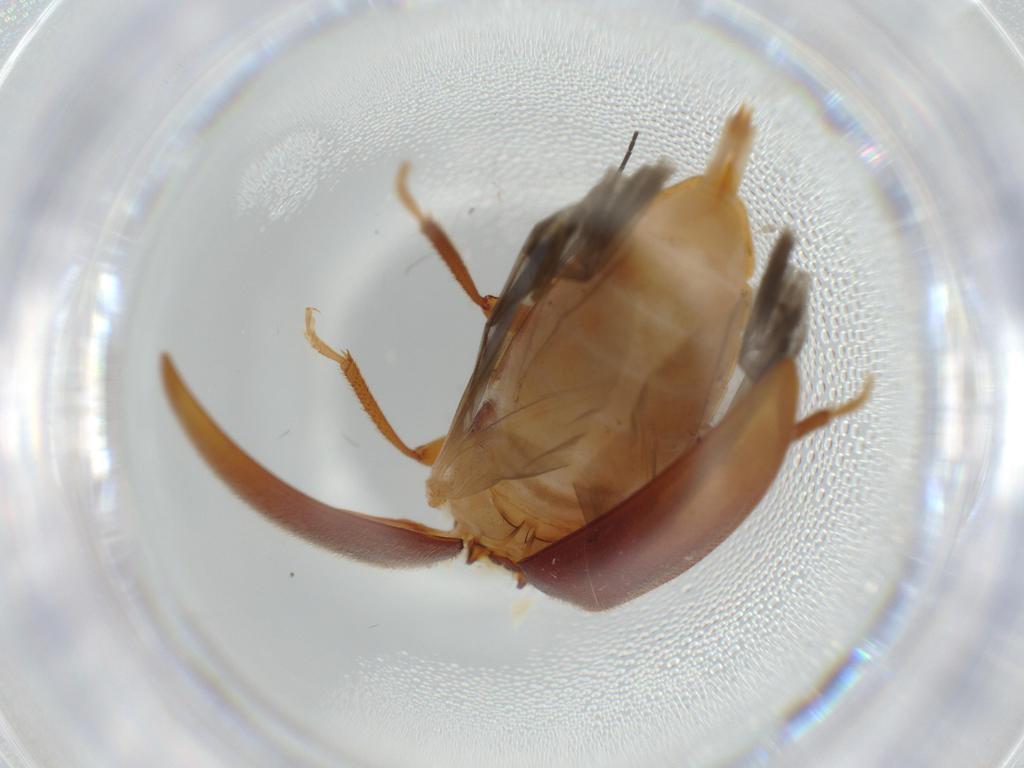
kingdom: Animalia
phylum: Arthropoda
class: Insecta
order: Coleoptera
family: Ptilodactylidae
